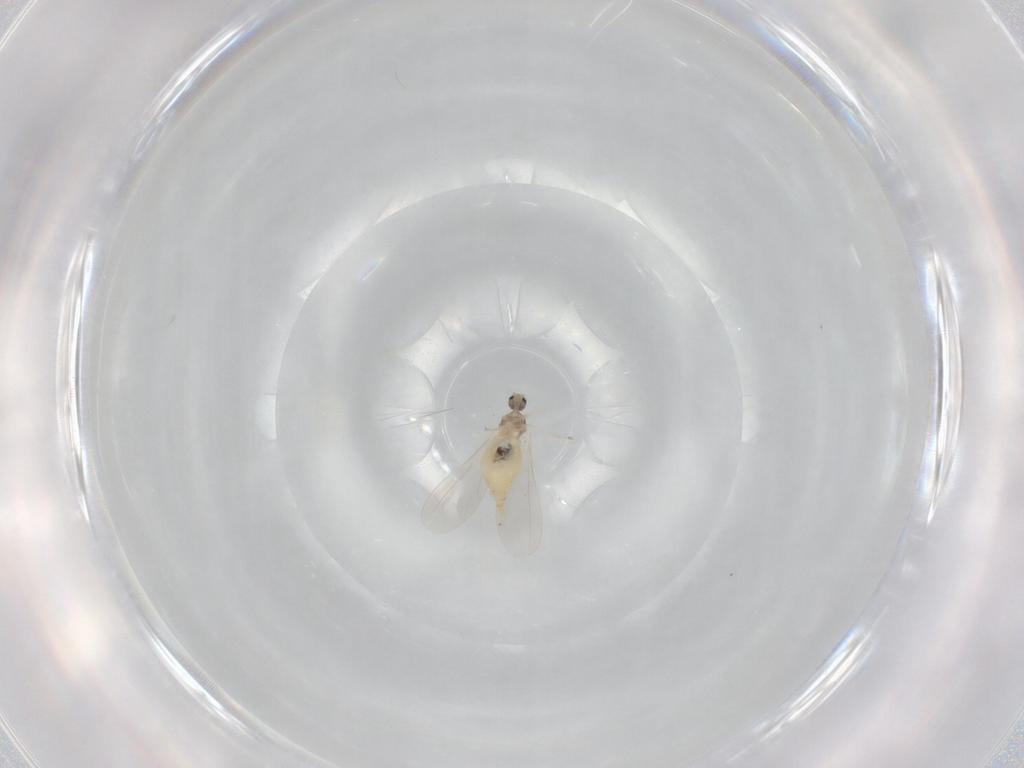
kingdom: Animalia
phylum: Arthropoda
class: Insecta
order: Diptera
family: Cecidomyiidae
